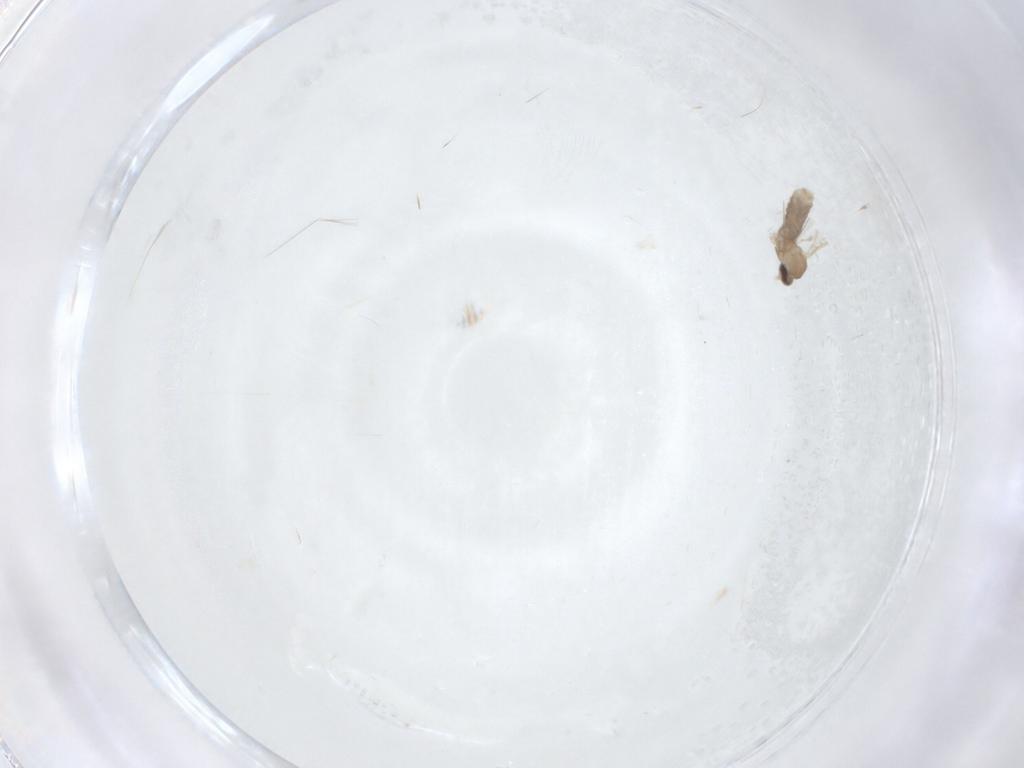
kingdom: Animalia
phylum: Arthropoda
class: Insecta
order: Diptera
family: Cecidomyiidae
